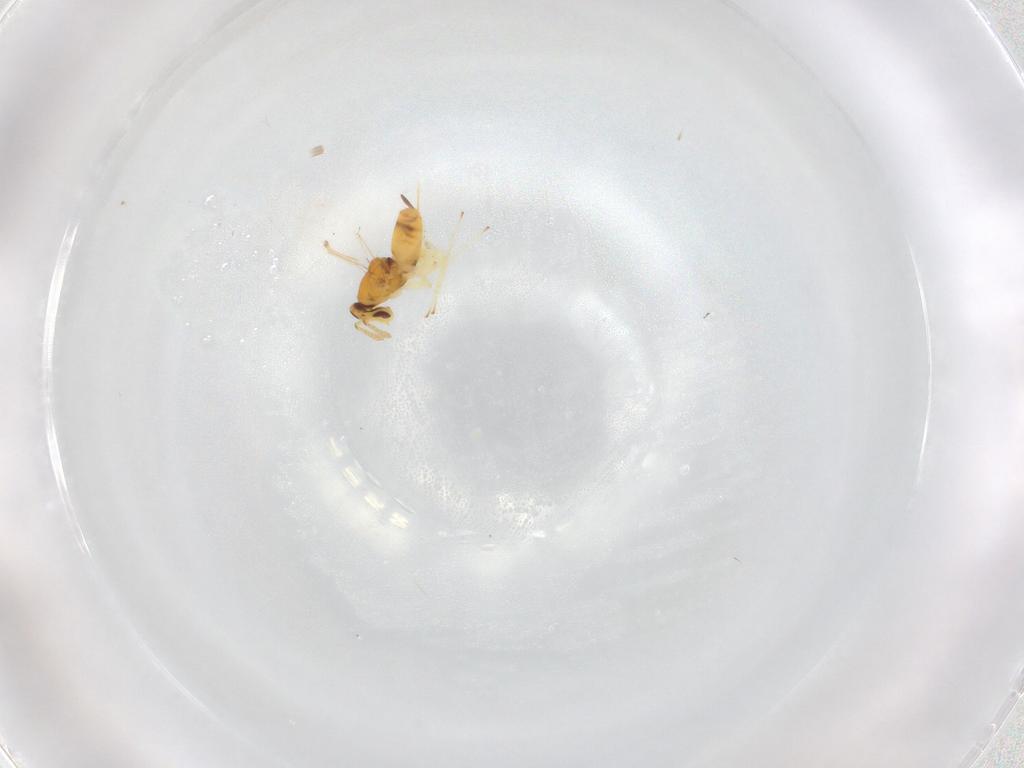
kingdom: Animalia
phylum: Arthropoda
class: Insecta
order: Hymenoptera
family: Eulophidae
